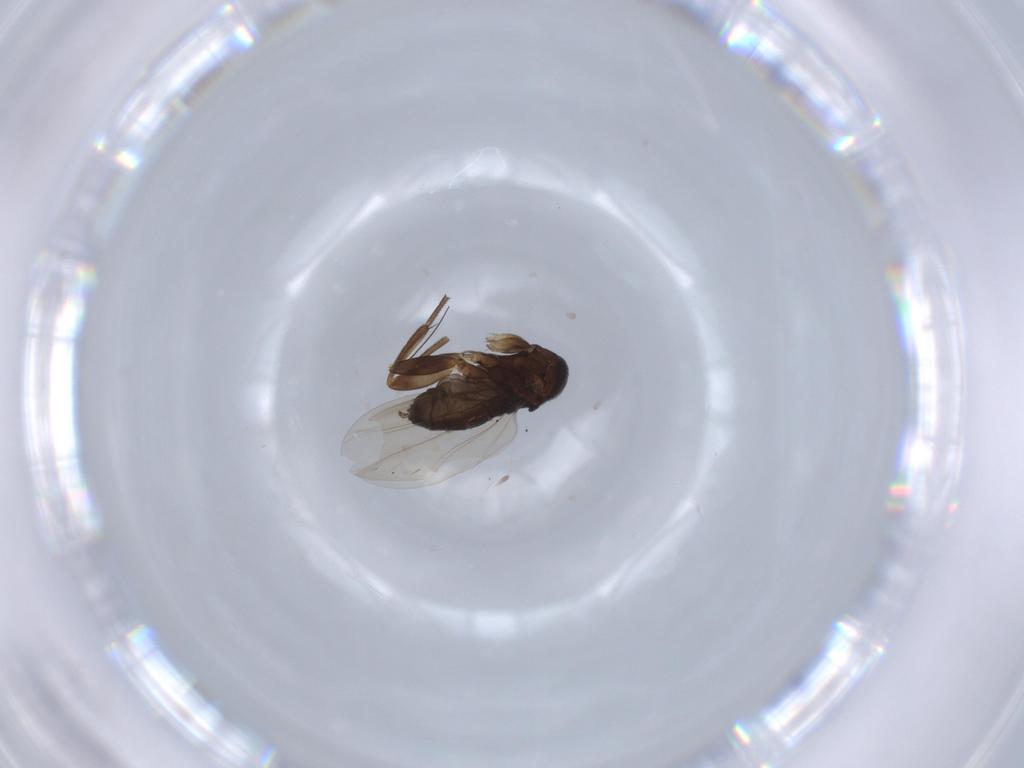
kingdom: Animalia
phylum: Arthropoda
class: Insecta
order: Diptera
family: Phoridae
